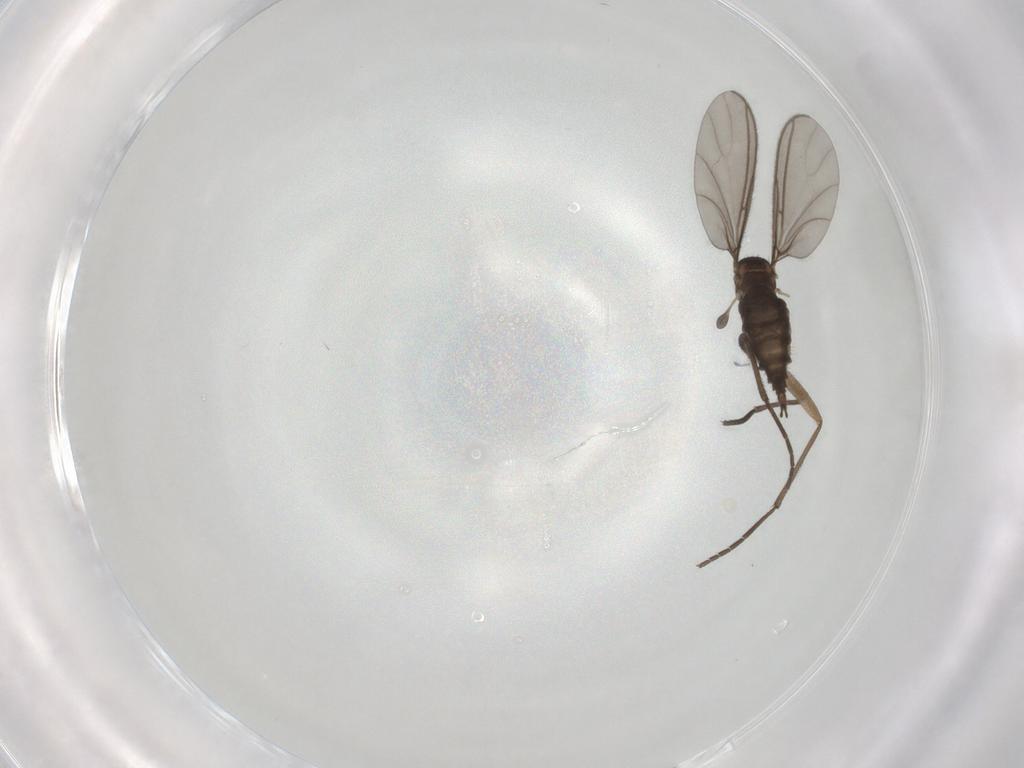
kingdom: Animalia
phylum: Arthropoda
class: Insecta
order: Diptera
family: Sciaridae
